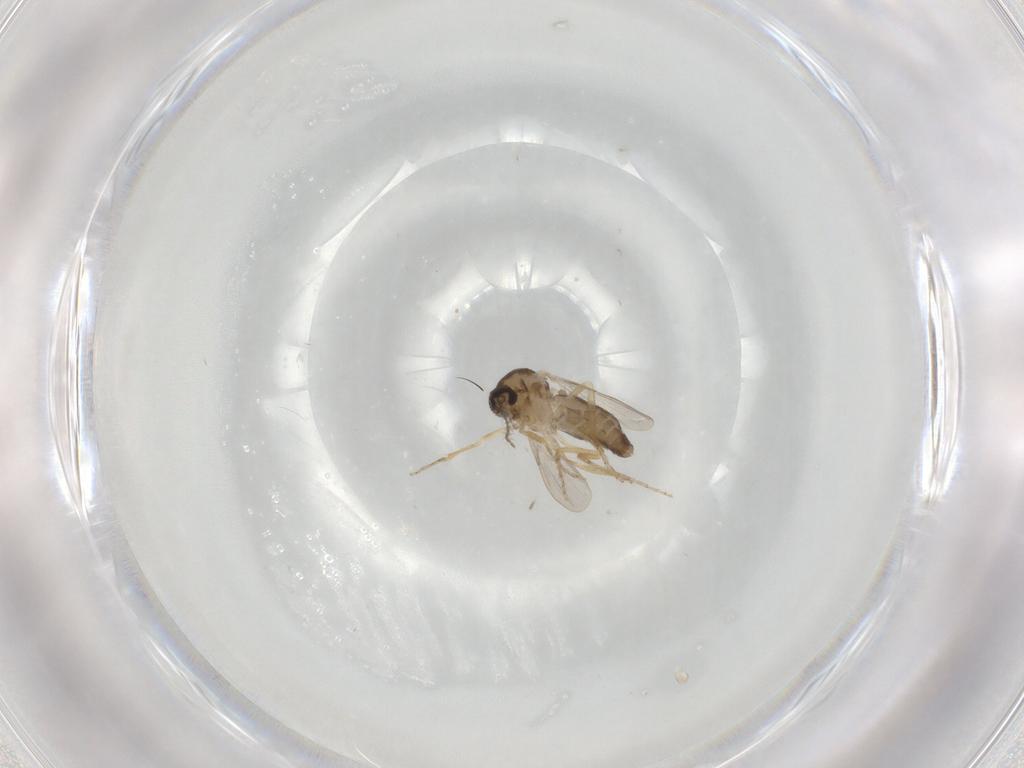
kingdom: Animalia
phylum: Arthropoda
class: Insecta
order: Diptera
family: Ceratopogonidae
